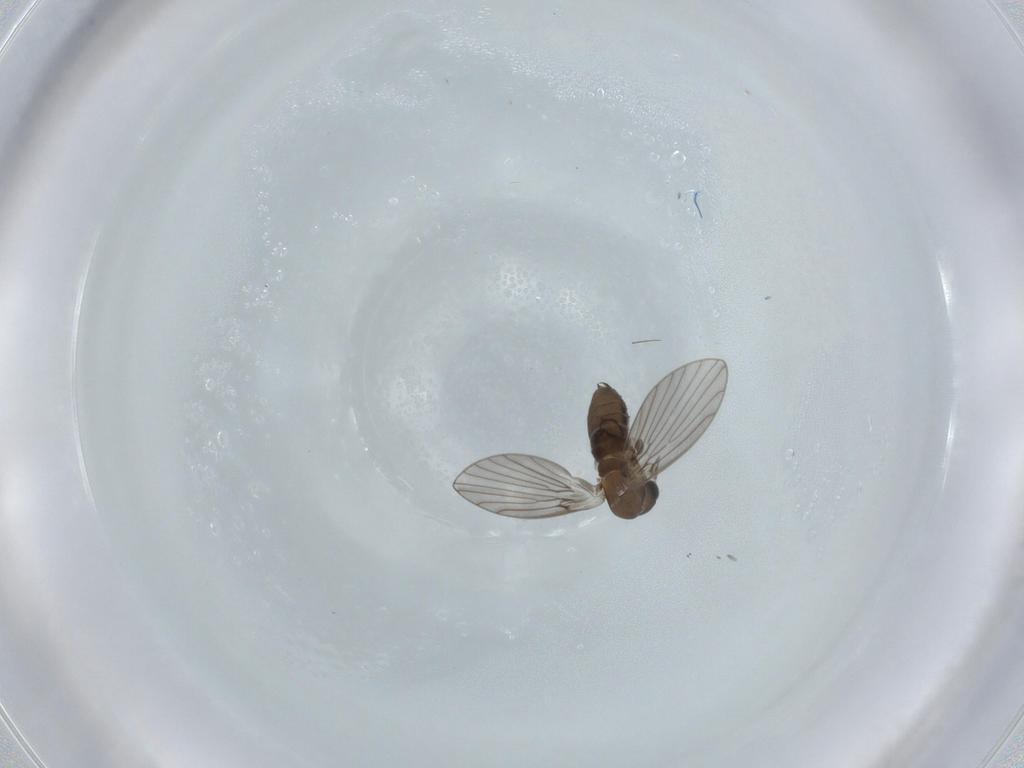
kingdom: Animalia
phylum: Arthropoda
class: Insecta
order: Diptera
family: Psychodidae
